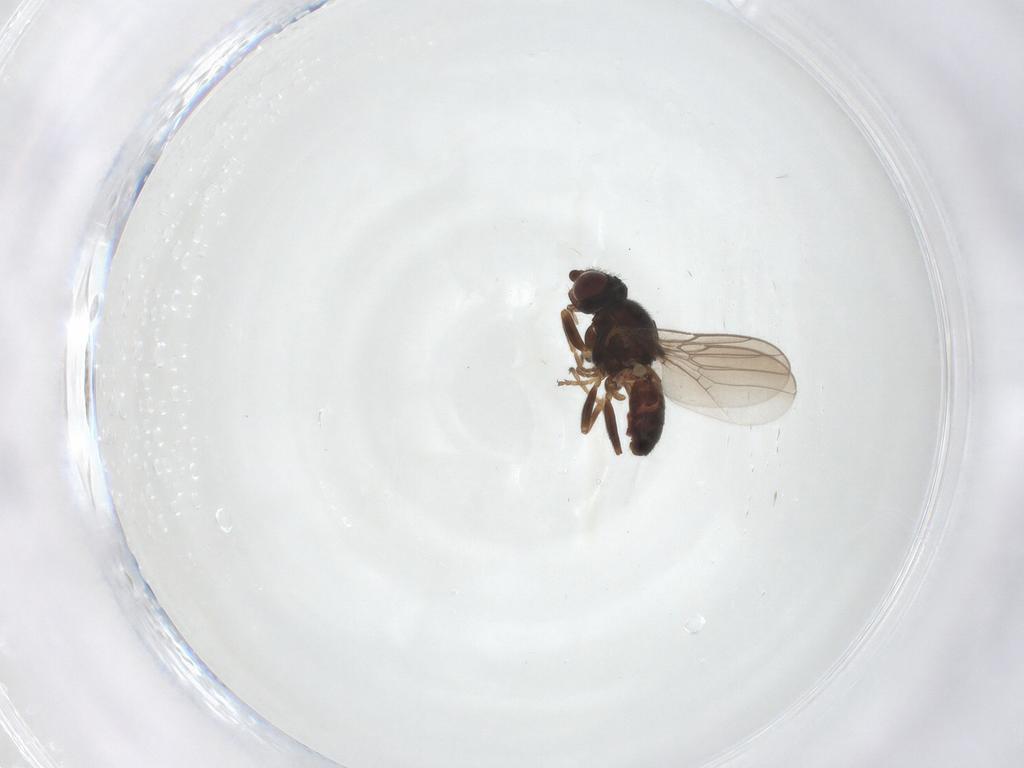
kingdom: Animalia
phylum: Arthropoda
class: Insecta
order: Diptera
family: Chloropidae
